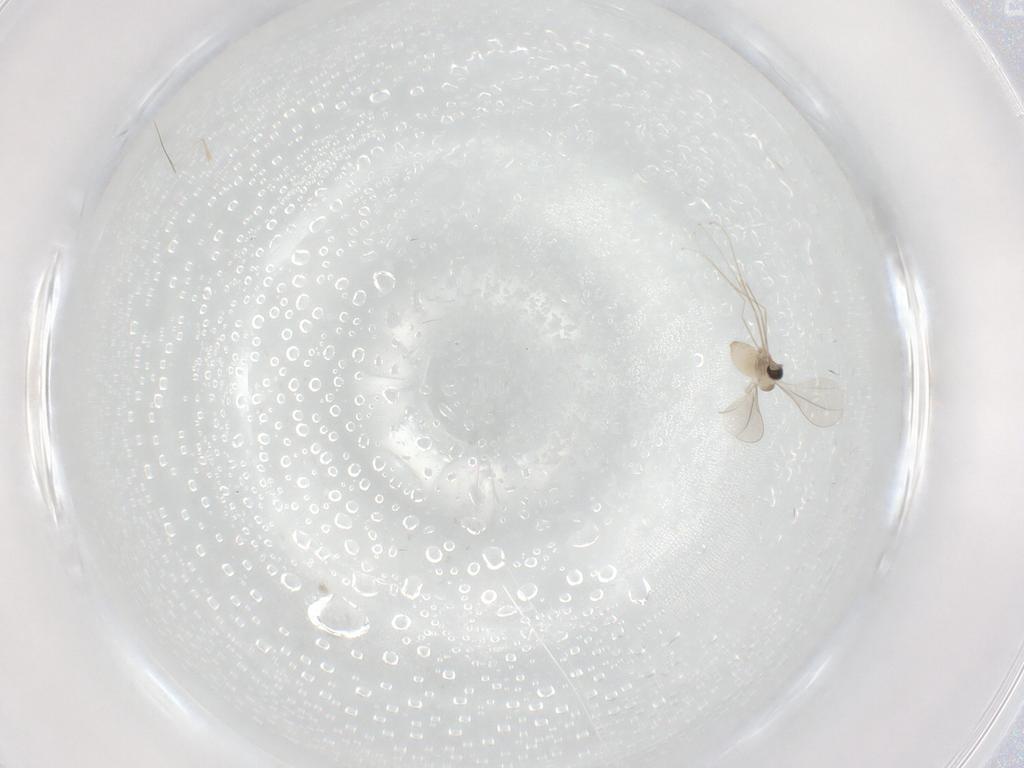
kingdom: Animalia
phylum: Arthropoda
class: Insecta
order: Diptera
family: Cecidomyiidae
